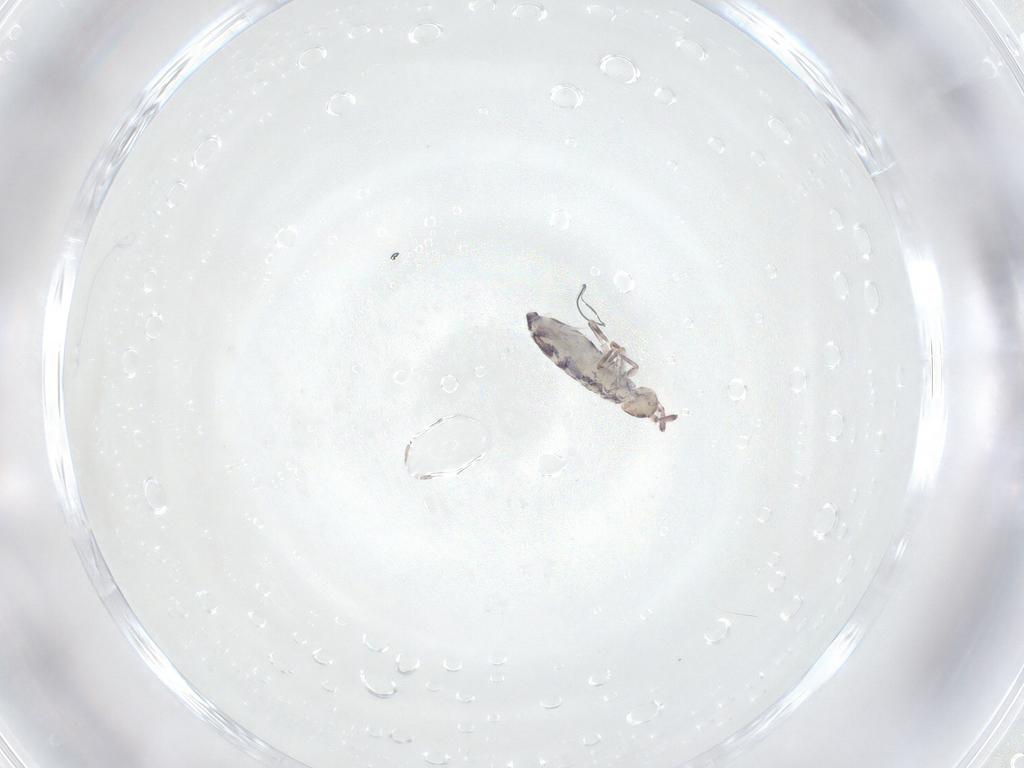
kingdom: Animalia
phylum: Arthropoda
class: Collembola
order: Entomobryomorpha
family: Entomobryidae
